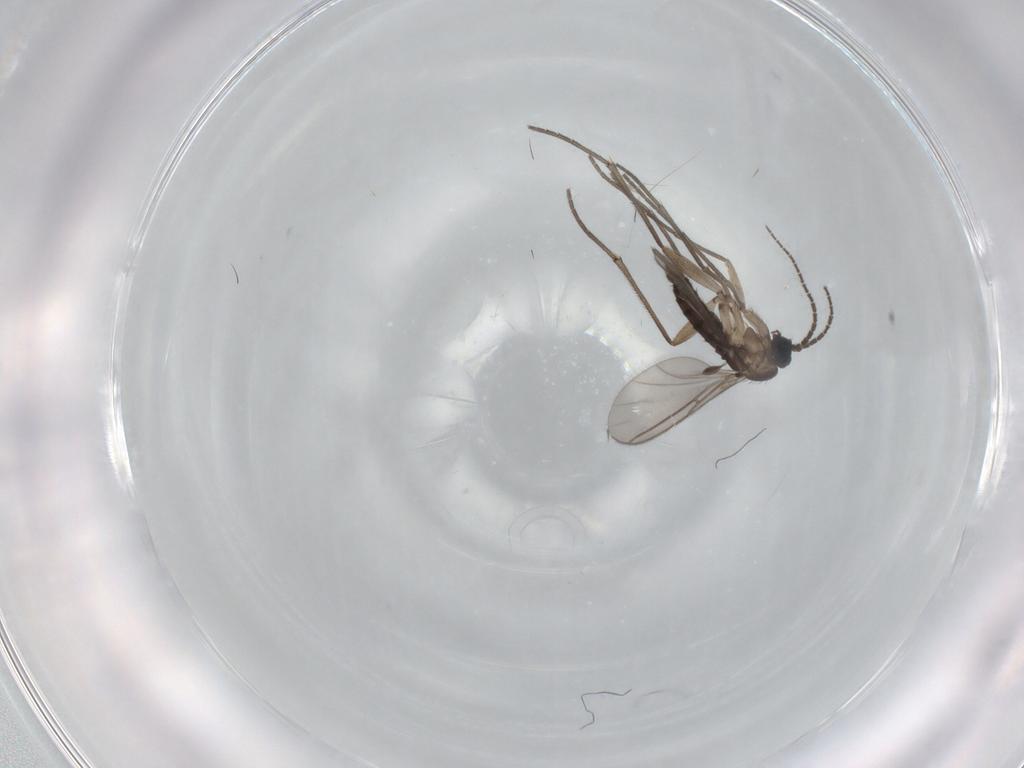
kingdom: Animalia
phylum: Arthropoda
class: Insecta
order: Diptera
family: Sciaridae
